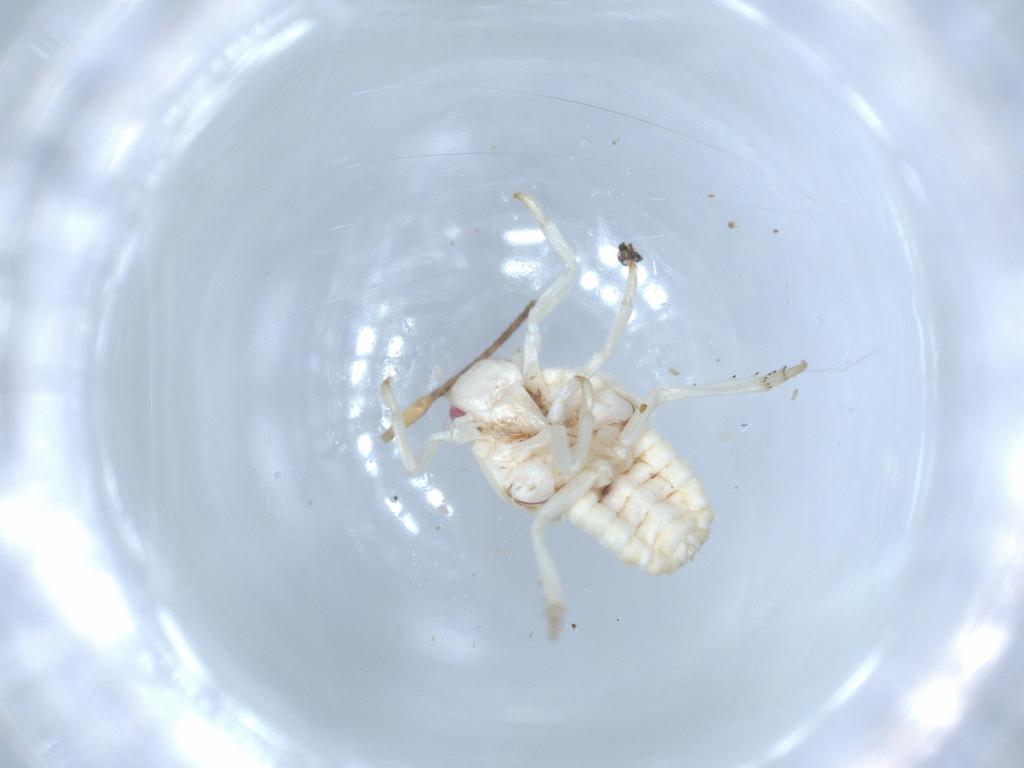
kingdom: Animalia
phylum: Arthropoda
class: Insecta
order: Hemiptera
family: Flatidae
